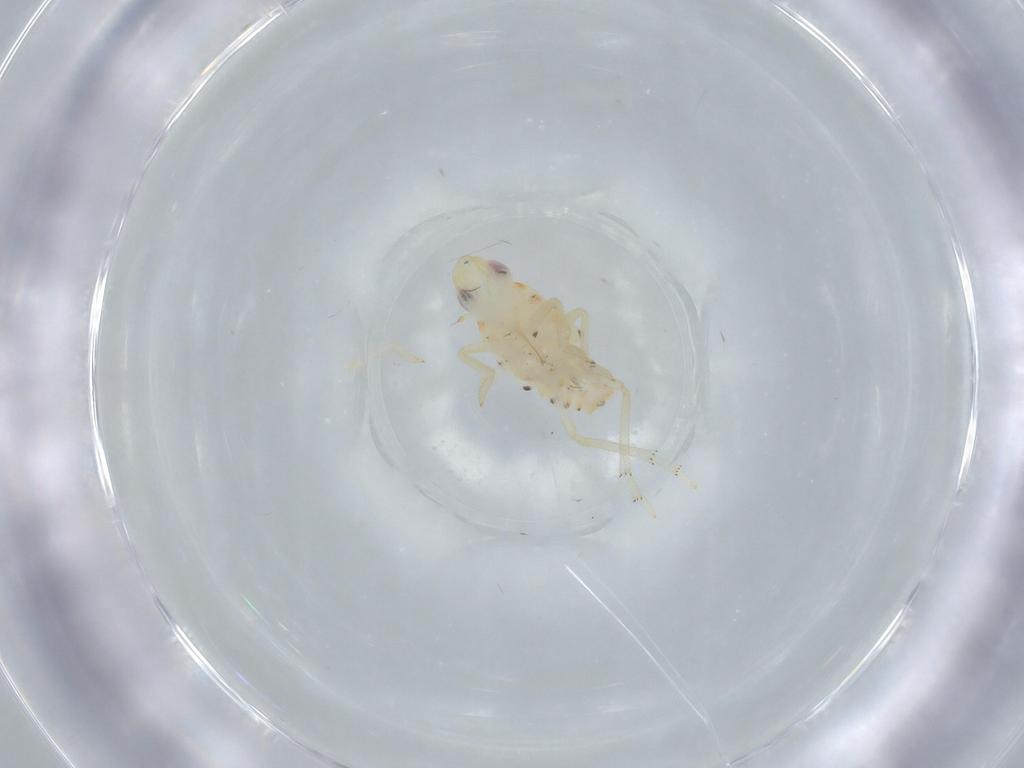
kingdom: Animalia
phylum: Arthropoda
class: Insecta
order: Hemiptera
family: Tropiduchidae
